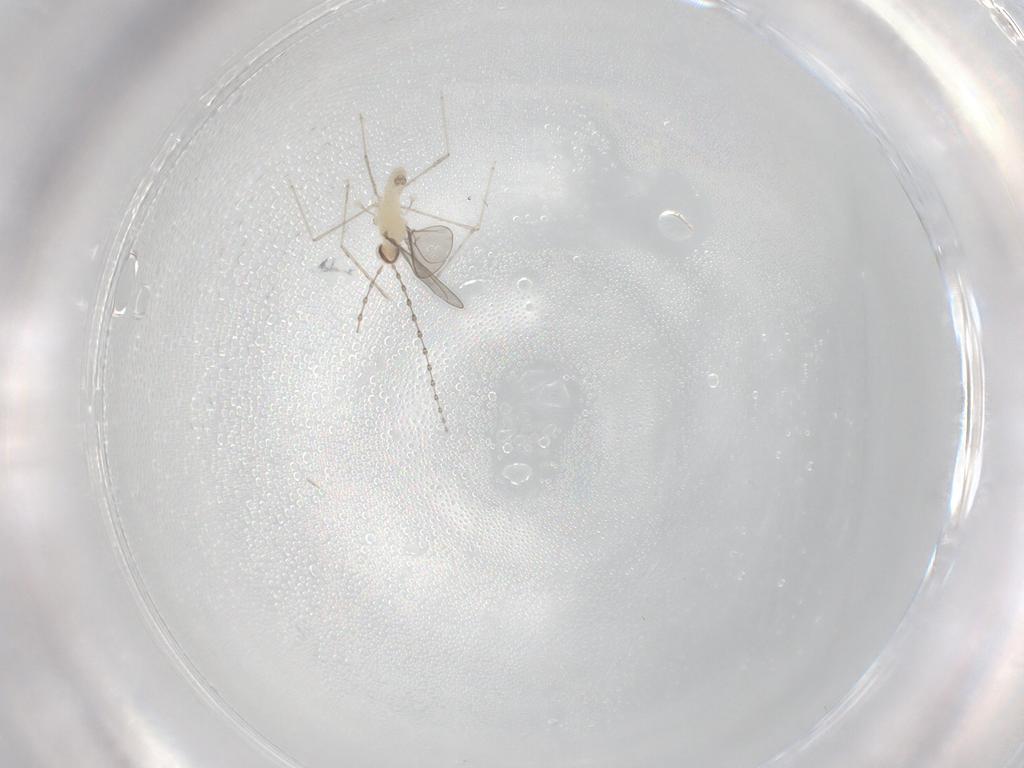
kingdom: Animalia
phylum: Arthropoda
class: Insecta
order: Diptera
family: Cecidomyiidae
